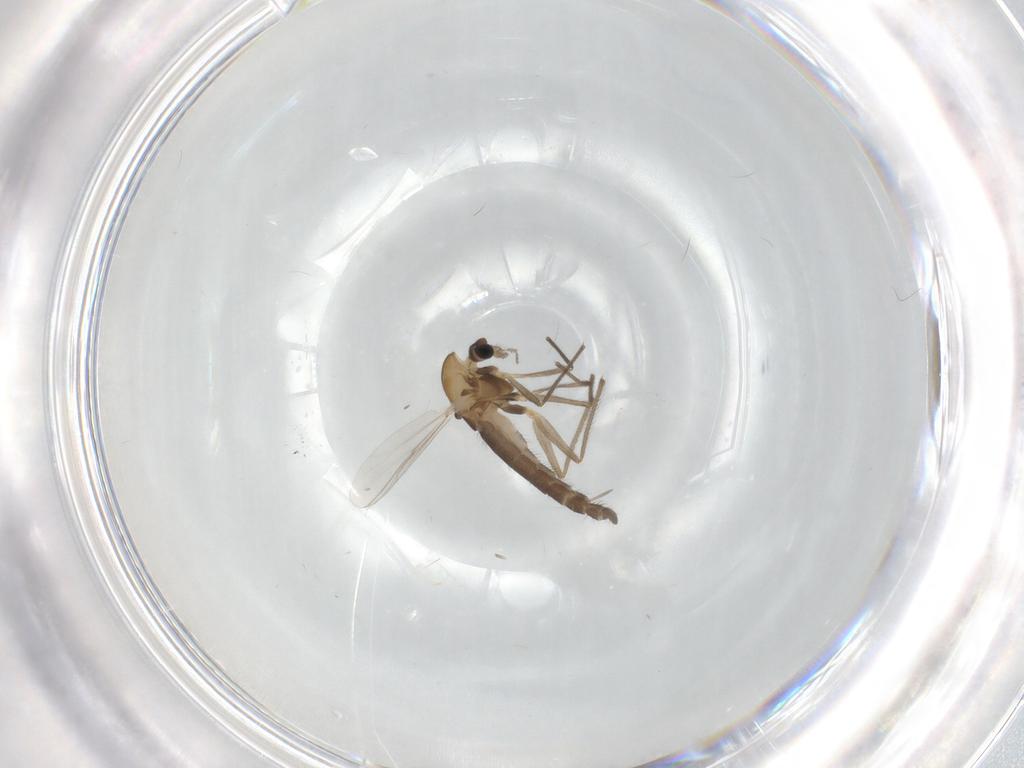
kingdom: Animalia
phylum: Arthropoda
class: Insecta
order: Diptera
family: Chironomidae
